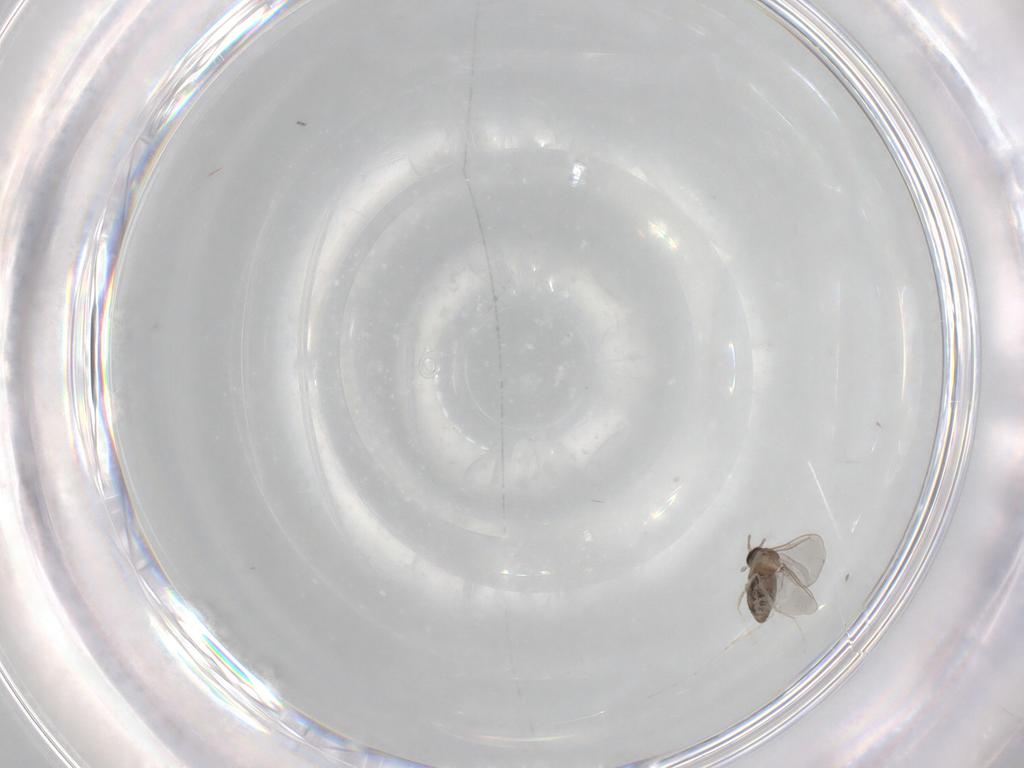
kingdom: Animalia
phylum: Arthropoda
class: Insecta
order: Diptera
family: Cecidomyiidae
